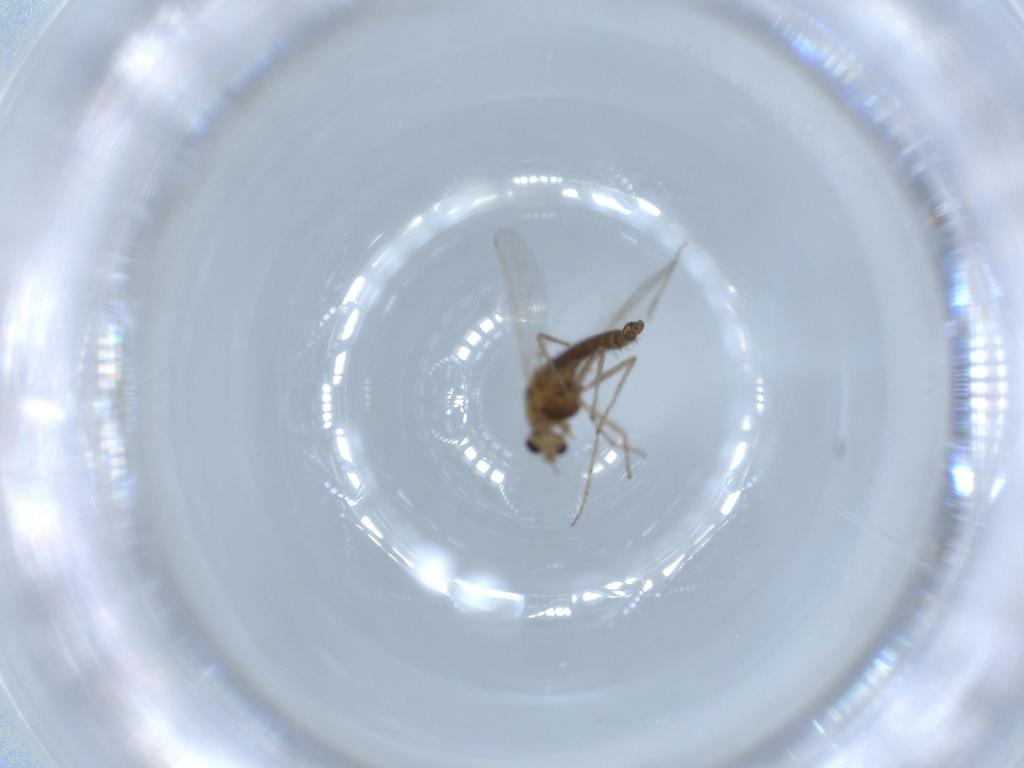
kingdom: Animalia
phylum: Arthropoda
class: Insecta
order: Diptera
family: Chironomidae
